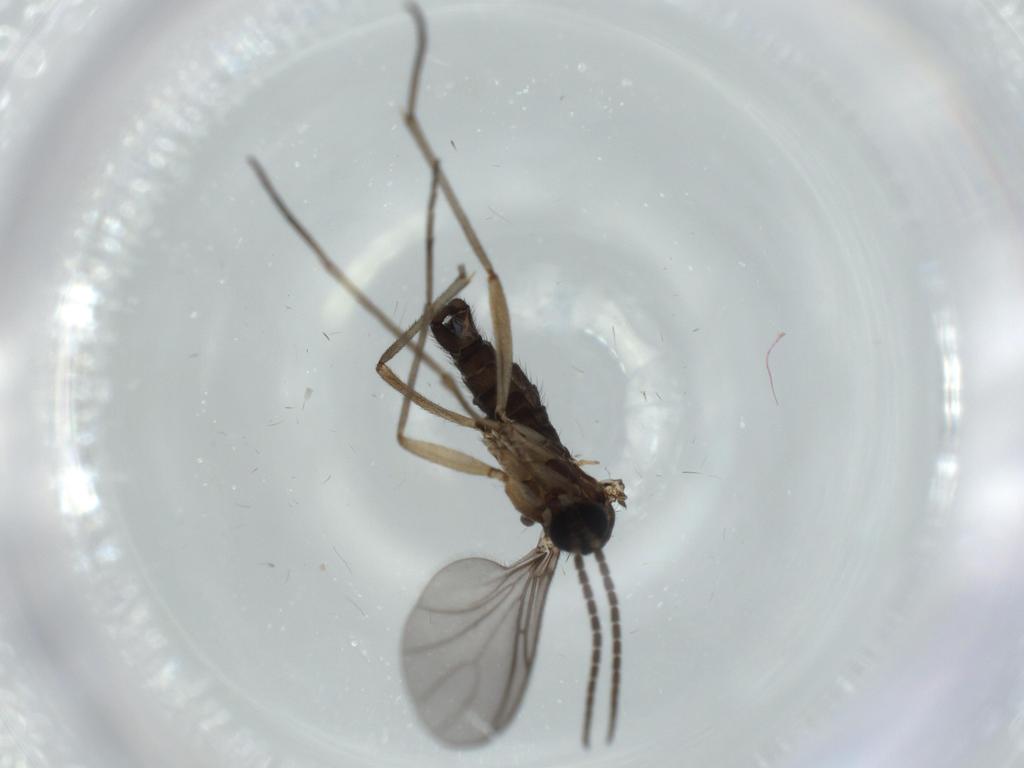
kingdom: Animalia
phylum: Arthropoda
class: Insecta
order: Diptera
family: Sciaridae
